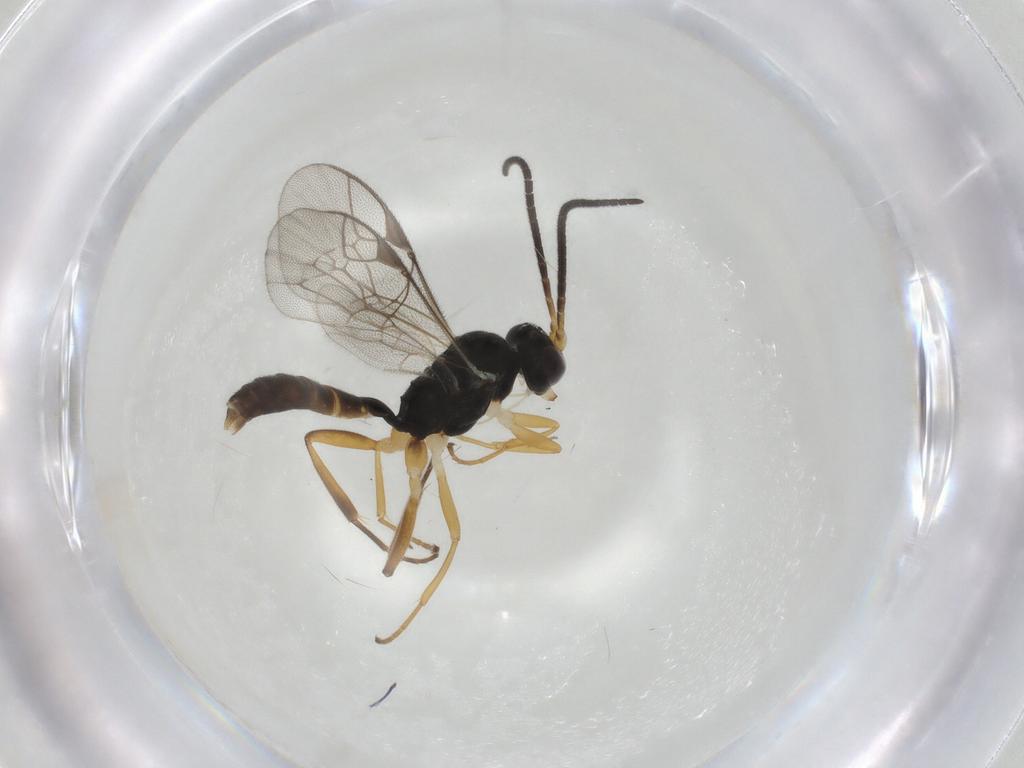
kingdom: Animalia
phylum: Arthropoda
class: Insecta
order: Hymenoptera
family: Ichneumonidae
